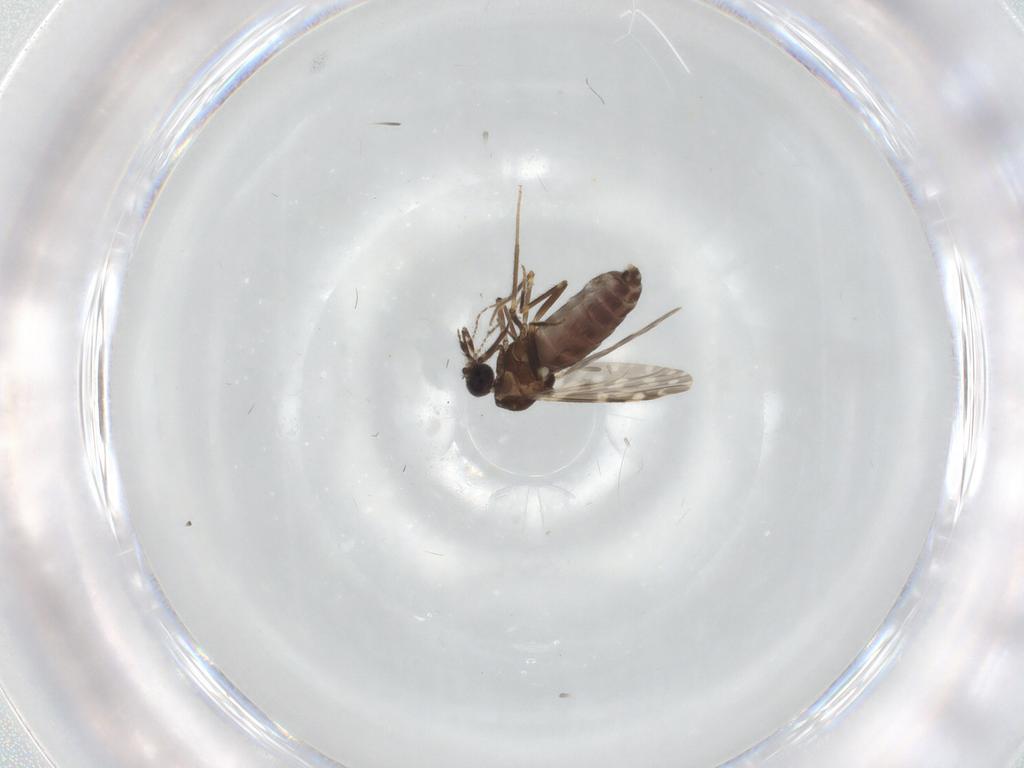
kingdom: Animalia
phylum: Arthropoda
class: Insecta
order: Diptera
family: Ceratopogonidae
